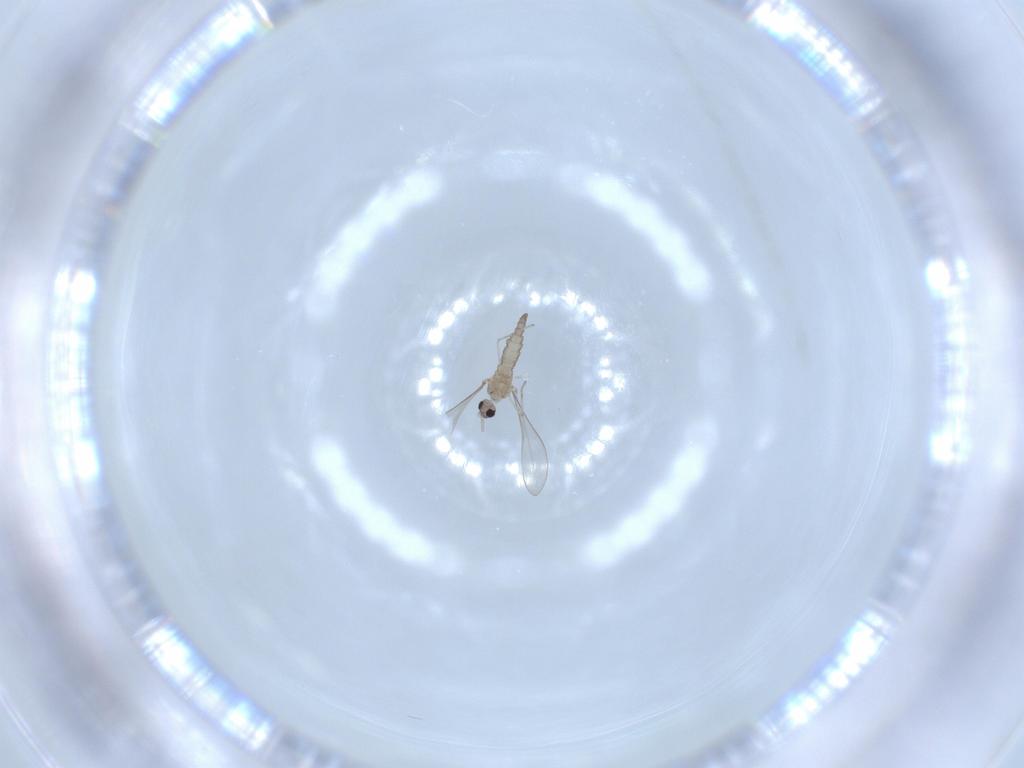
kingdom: Animalia
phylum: Arthropoda
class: Insecta
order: Diptera
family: Cecidomyiidae
